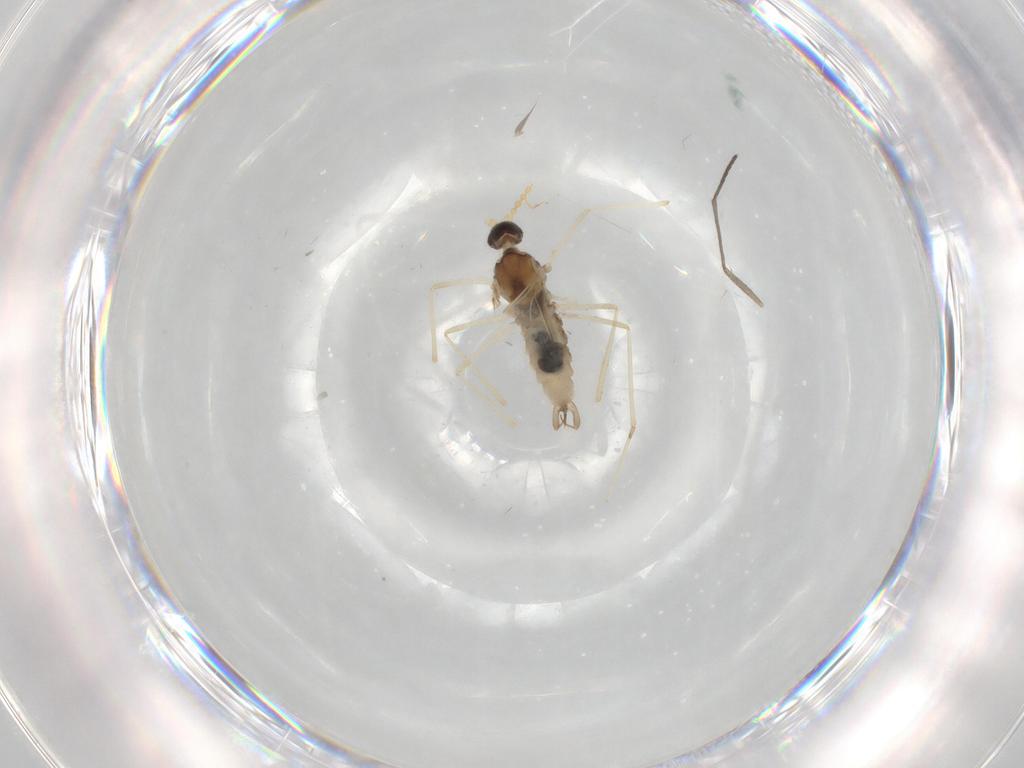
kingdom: Animalia
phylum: Arthropoda
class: Insecta
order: Diptera
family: Cecidomyiidae
